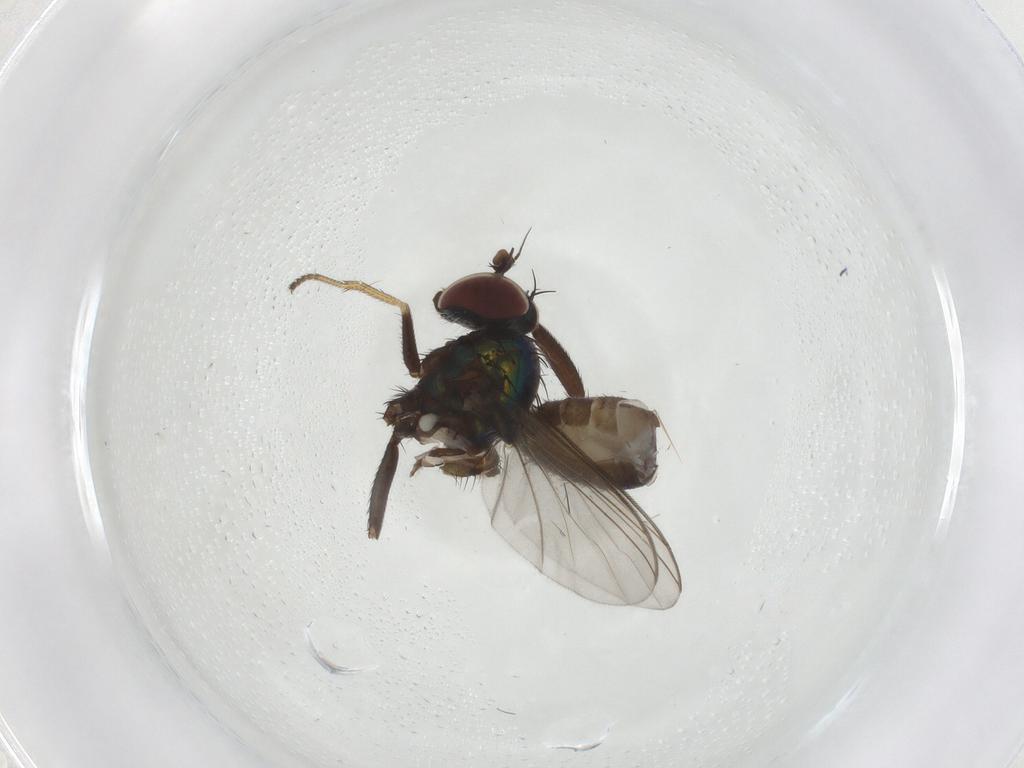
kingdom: Animalia
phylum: Arthropoda
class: Insecta
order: Diptera
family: Dolichopodidae
